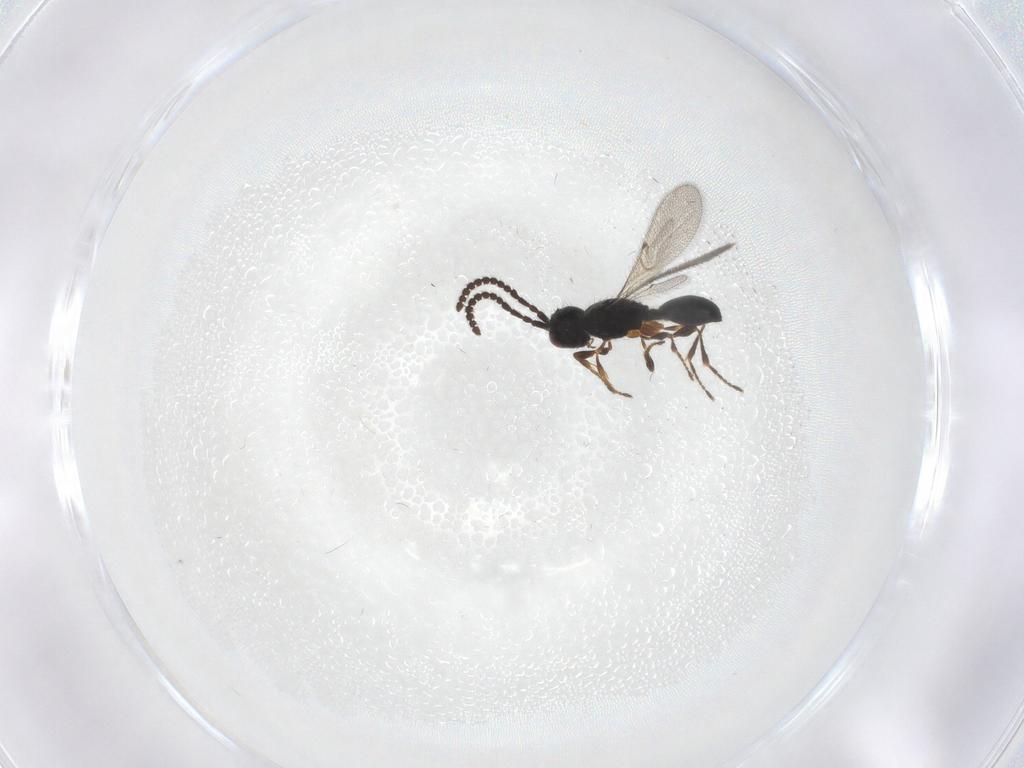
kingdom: Animalia
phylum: Arthropoda
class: Insecta
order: Hymenoptera
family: Diapriidae
